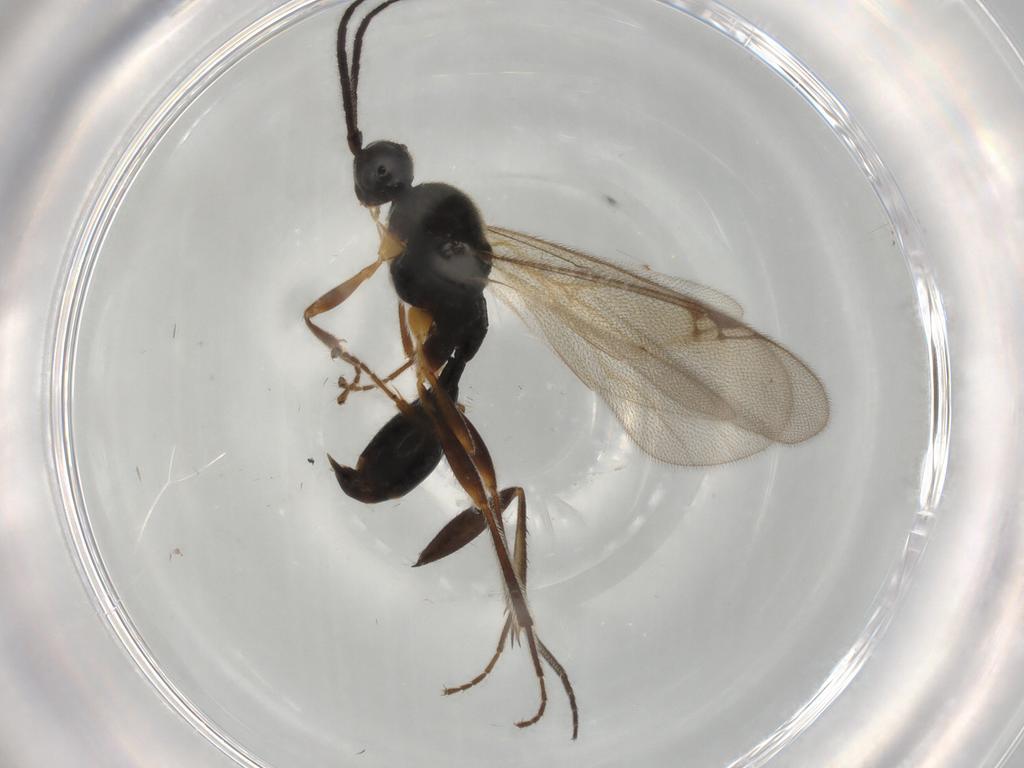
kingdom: Animalia
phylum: Arthropoda
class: Insecta
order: Hymenoptera
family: Proctotrupidae
